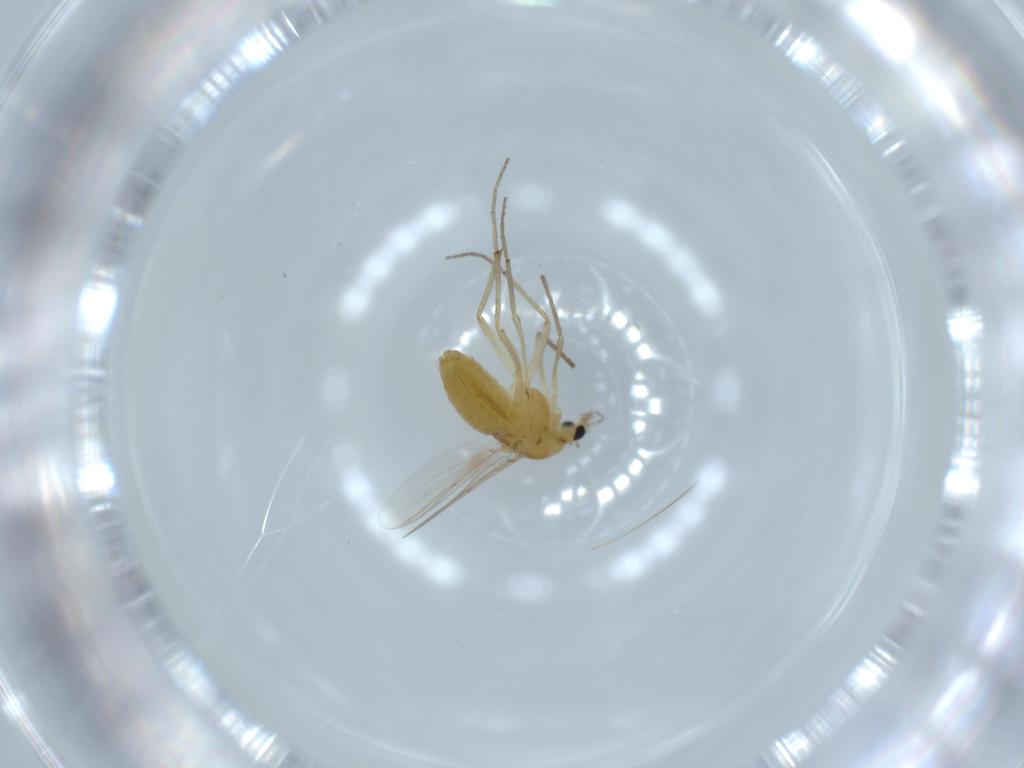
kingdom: Animalia
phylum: Arthropoda
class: Insecta
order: Diptera
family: Chironomidae
